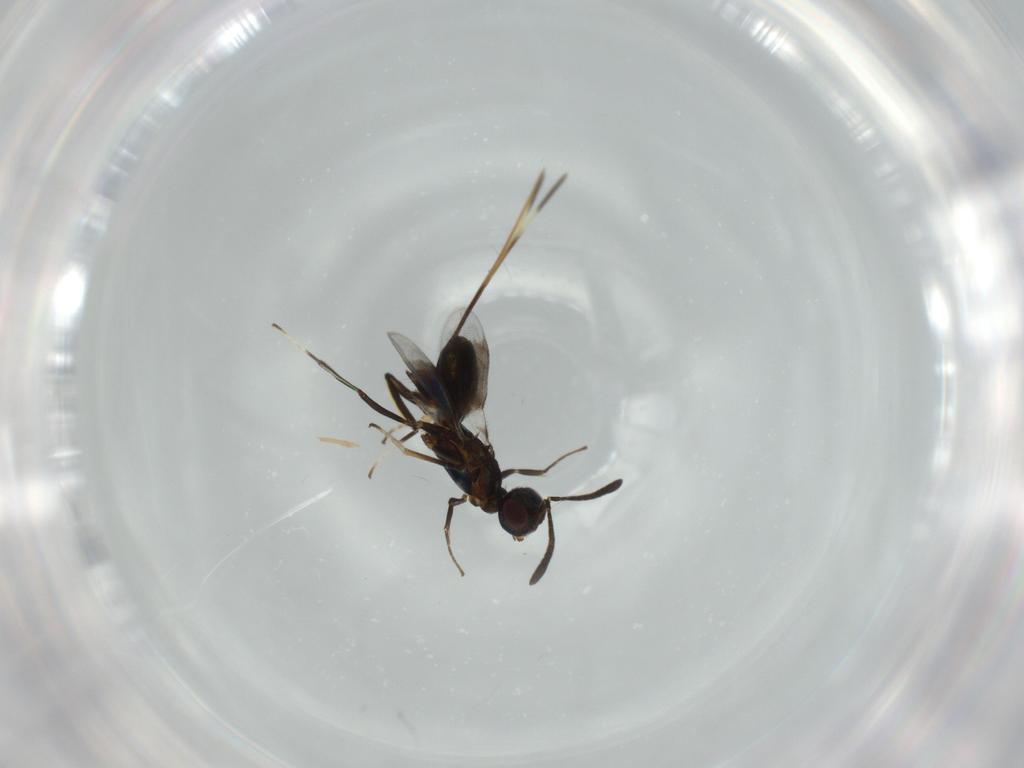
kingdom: Animalia
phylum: Arthropoda
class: Insecta
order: Hymenoptera
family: Eupelmidae
